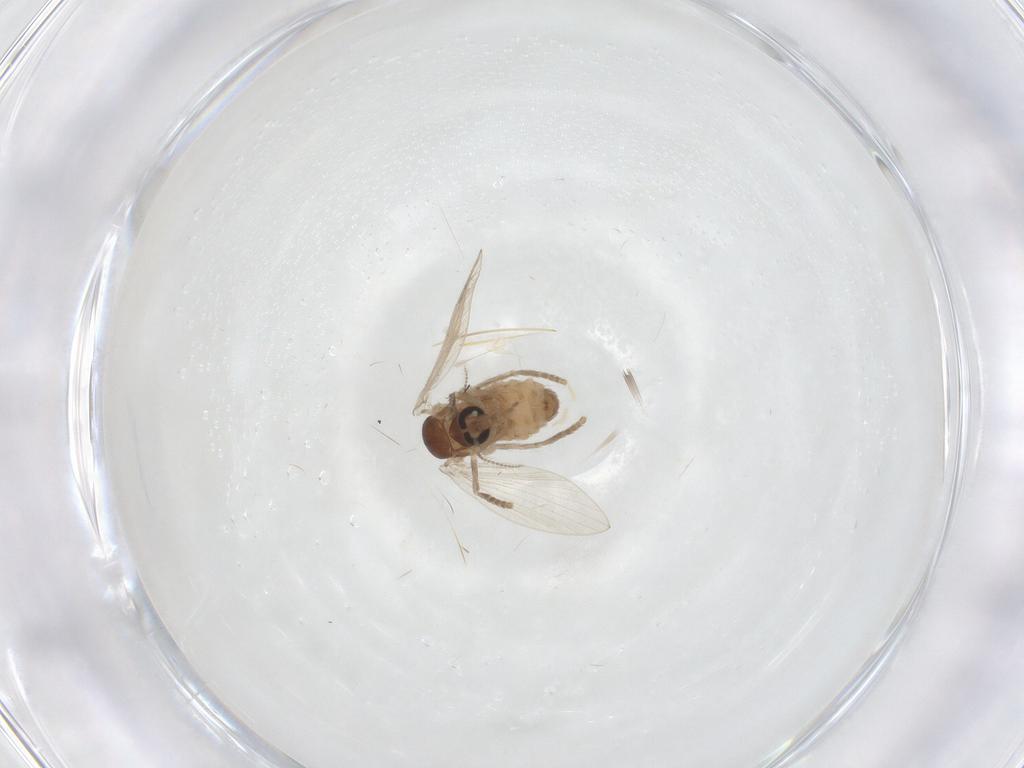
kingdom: Animalia
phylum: Arthropoda
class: Insecta
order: Diptera
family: Psychodidae
